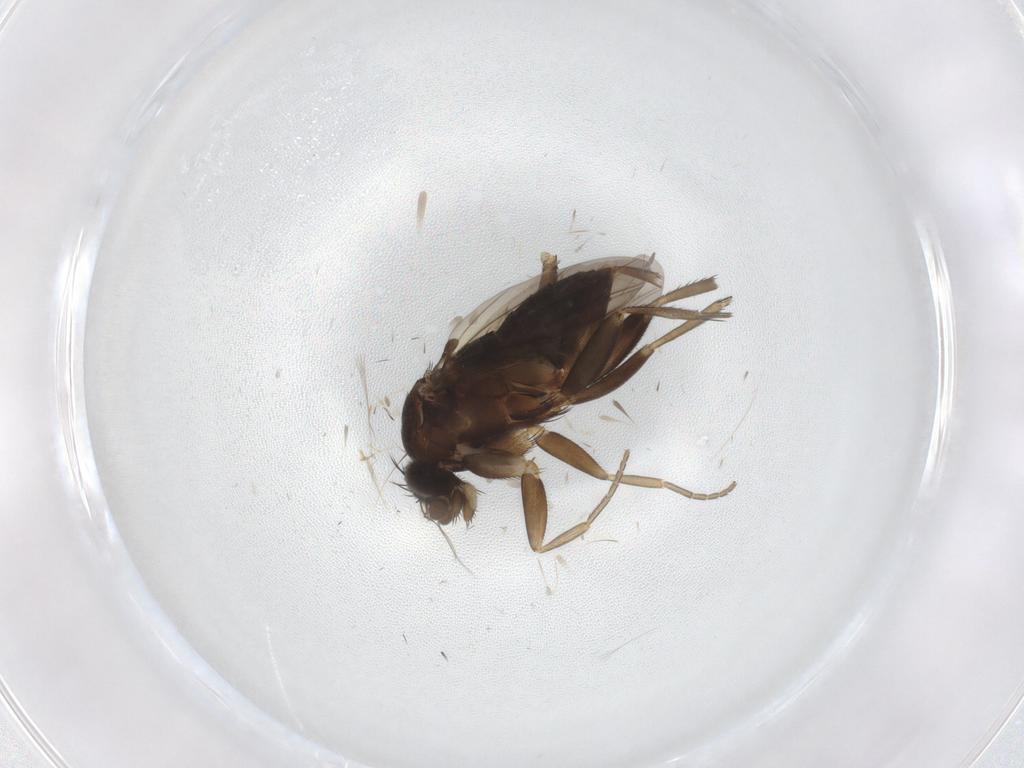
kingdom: Animalia
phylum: Arthropoda
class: Insecta
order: Diptera
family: Phoridae
